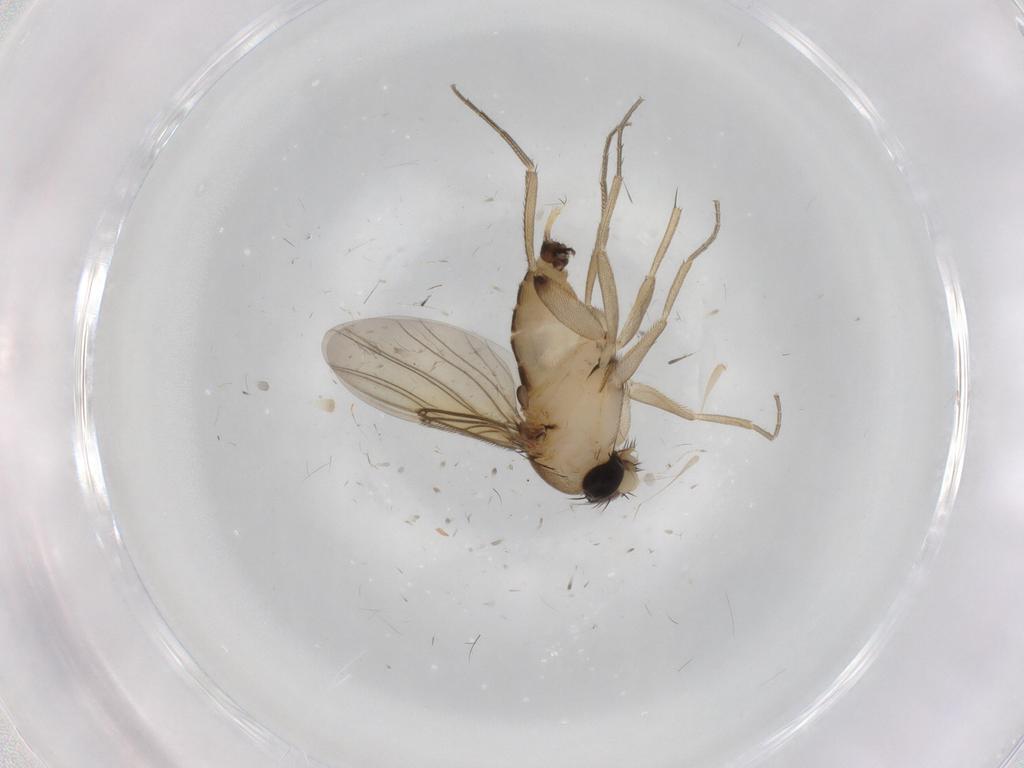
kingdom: Animalia
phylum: Arthropoda
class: Insecta
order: Diptera
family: Phoridae
